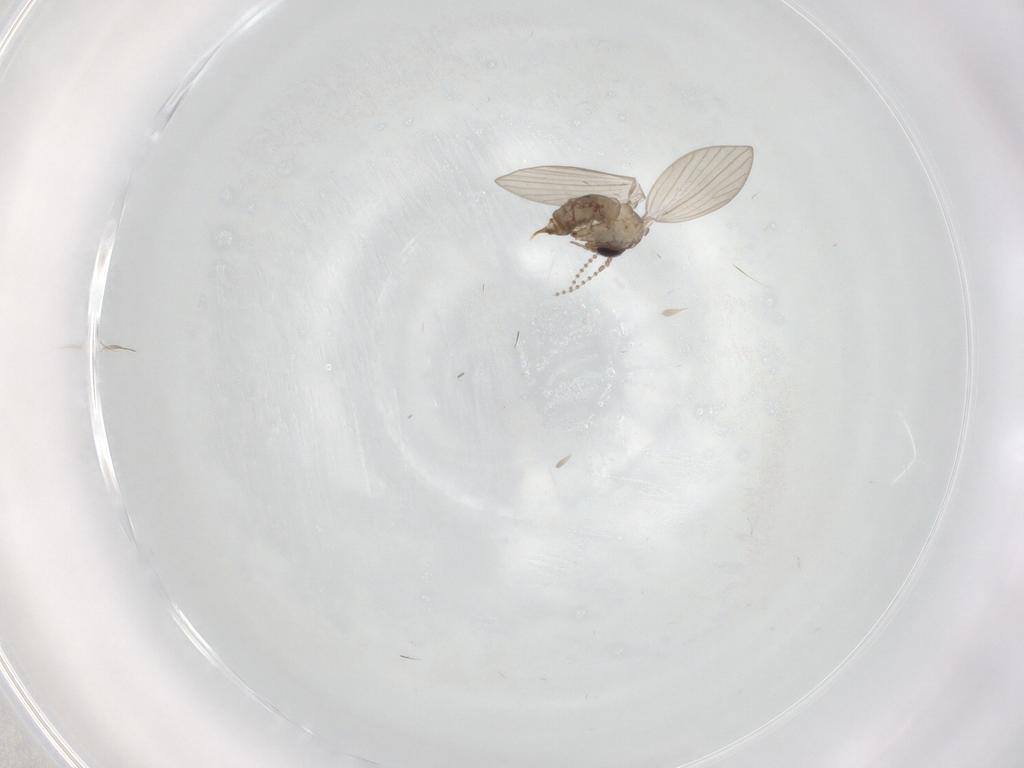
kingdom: Animalia
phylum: Arthropoda
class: Insecta
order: Diptera
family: Psychodidae
